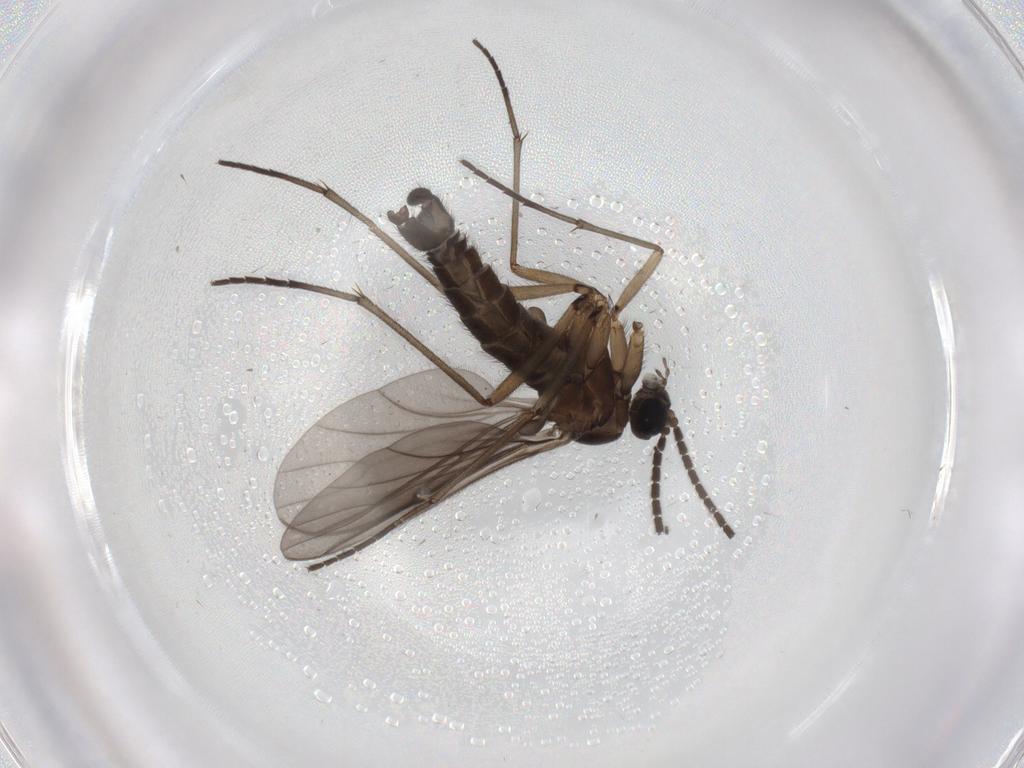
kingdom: Animalia
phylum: Arthropoda
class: Insecta
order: Diptera
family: Sciaridae
